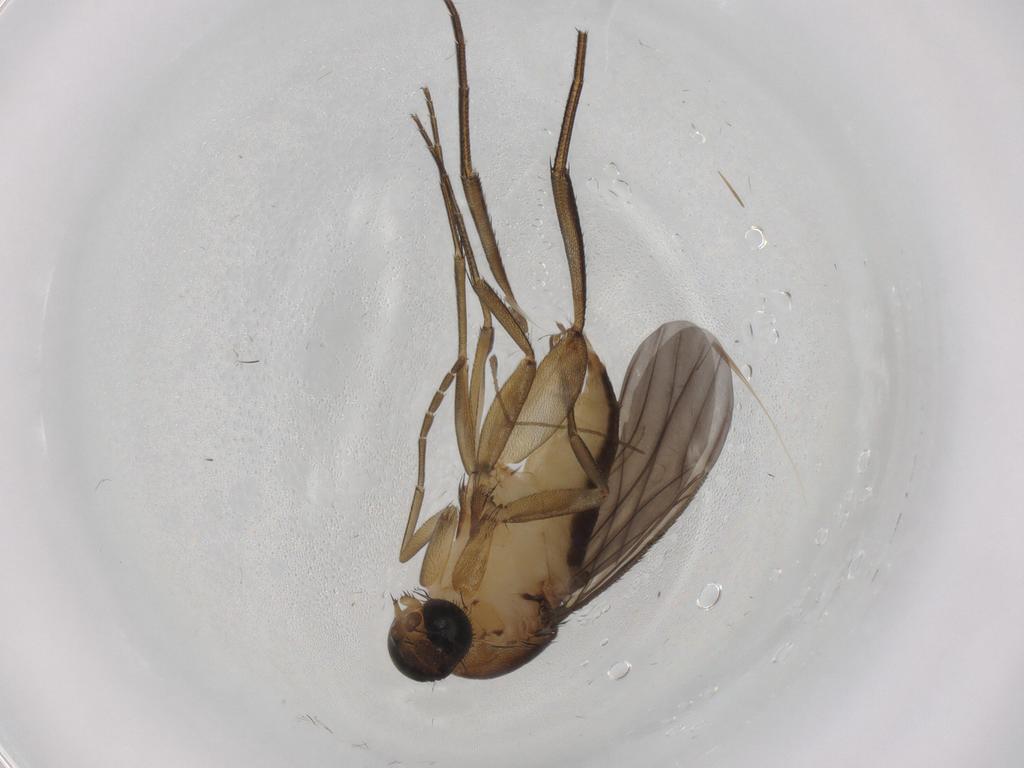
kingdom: Animalia
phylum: Arthropoda
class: Insecta
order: Diptera
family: Phoridae
